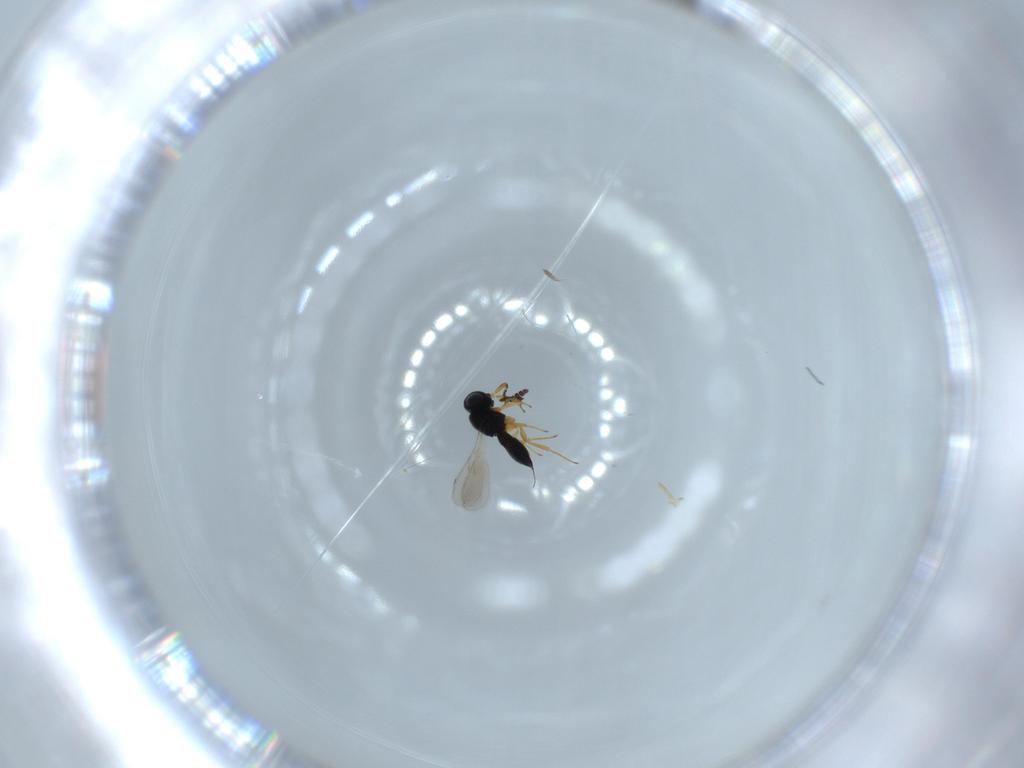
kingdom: Animalia
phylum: Arthropoda
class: Insecta
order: Hymenoptera
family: Scelionidae
